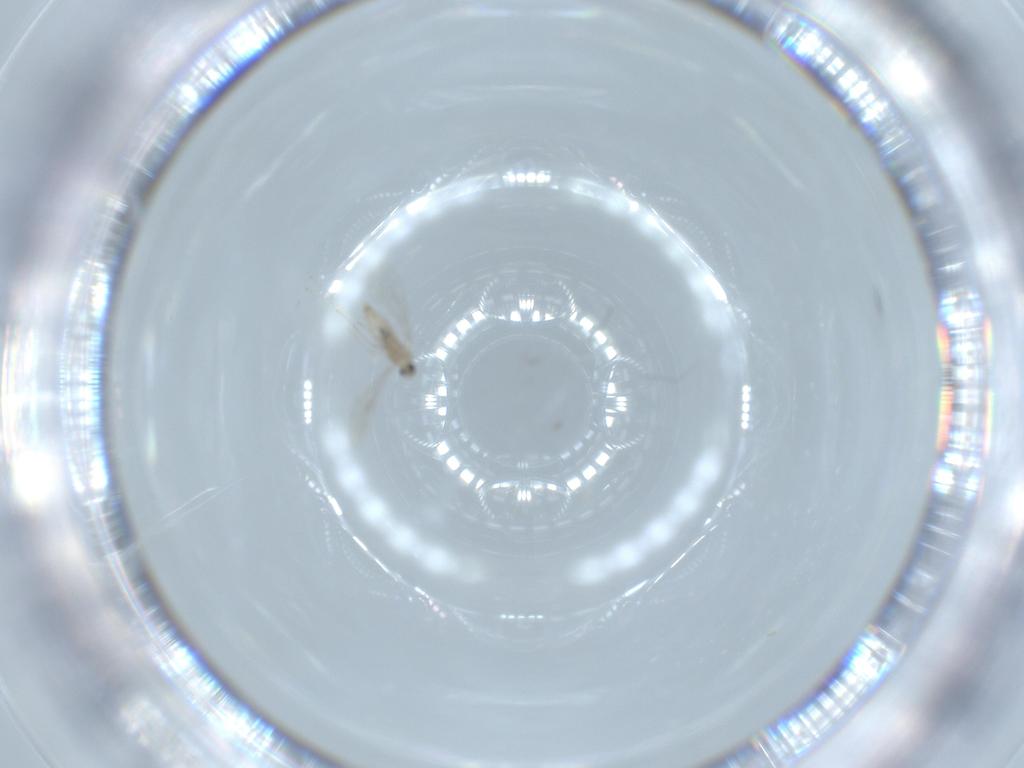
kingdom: Animalia
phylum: Arthropoda
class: Insecta
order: Diptera
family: Cecidomyiidae
